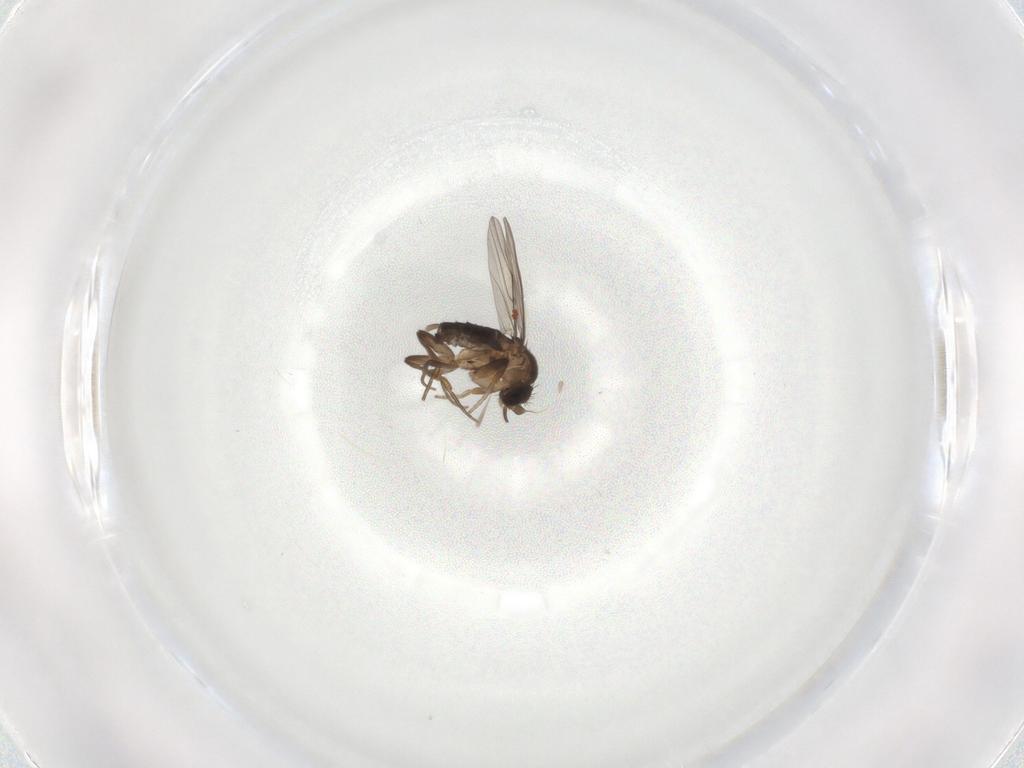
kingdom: Animalia
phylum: Arthropoda
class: Insecta
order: Diptera
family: Phoridae
